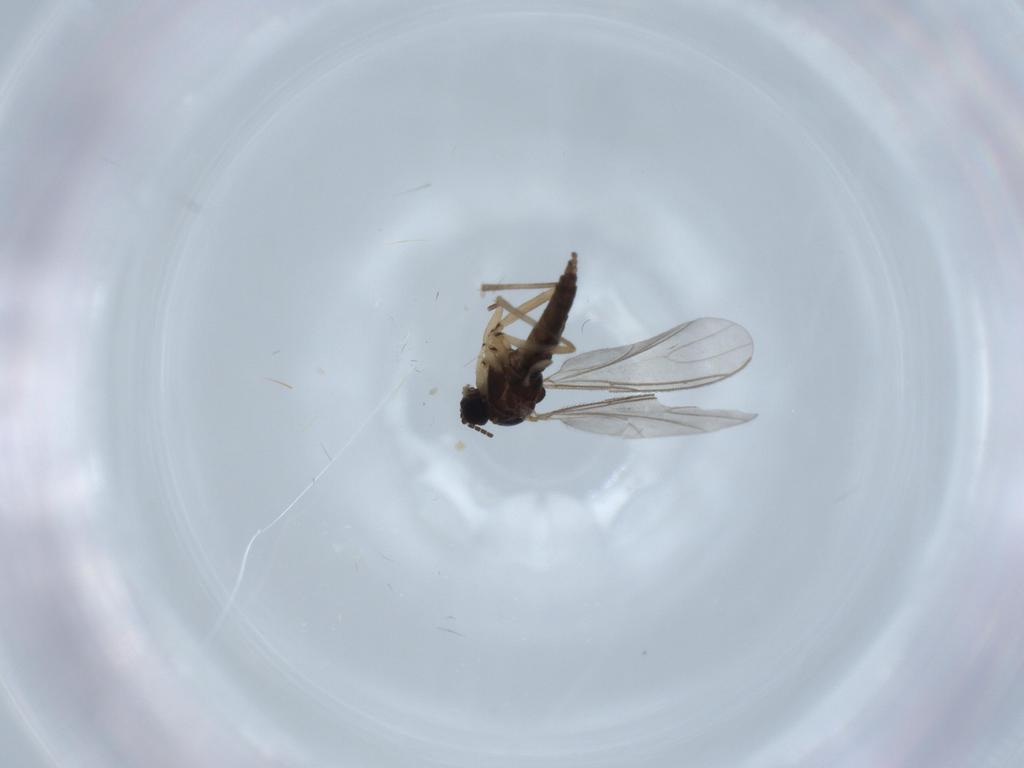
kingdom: Animalia
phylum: Arthropoda
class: Insecta
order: Diptera
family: Sciaridae
